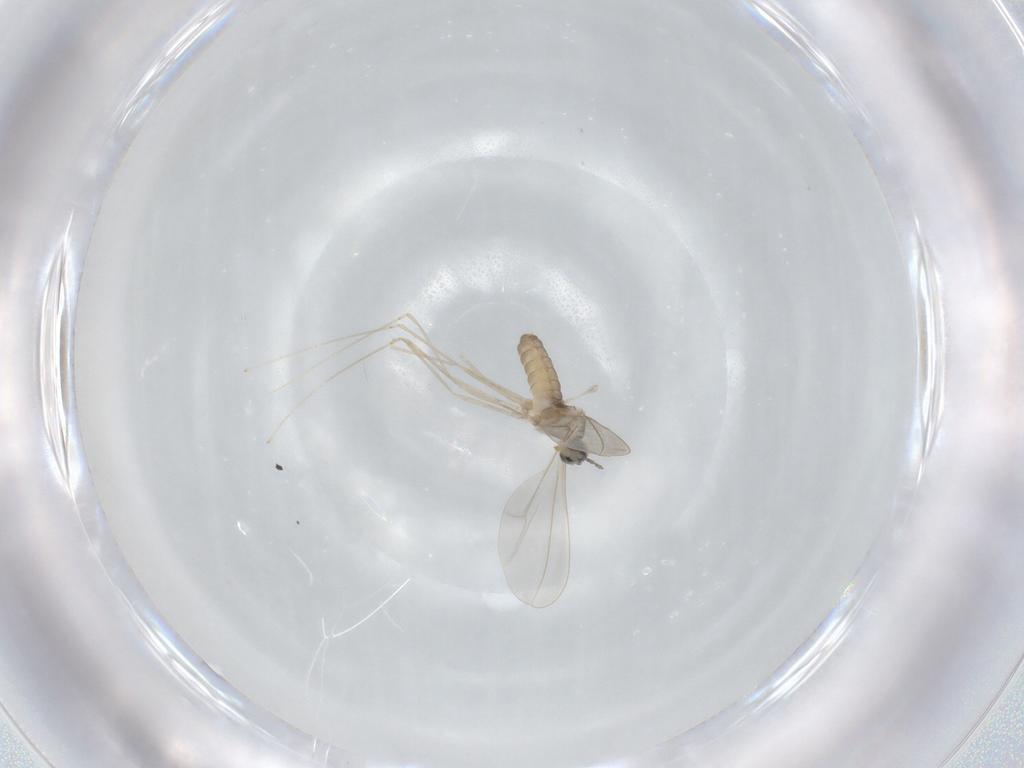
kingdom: Animalia
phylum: Arthropoda
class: Insecta
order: Diptera
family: Cecidomyiidae
